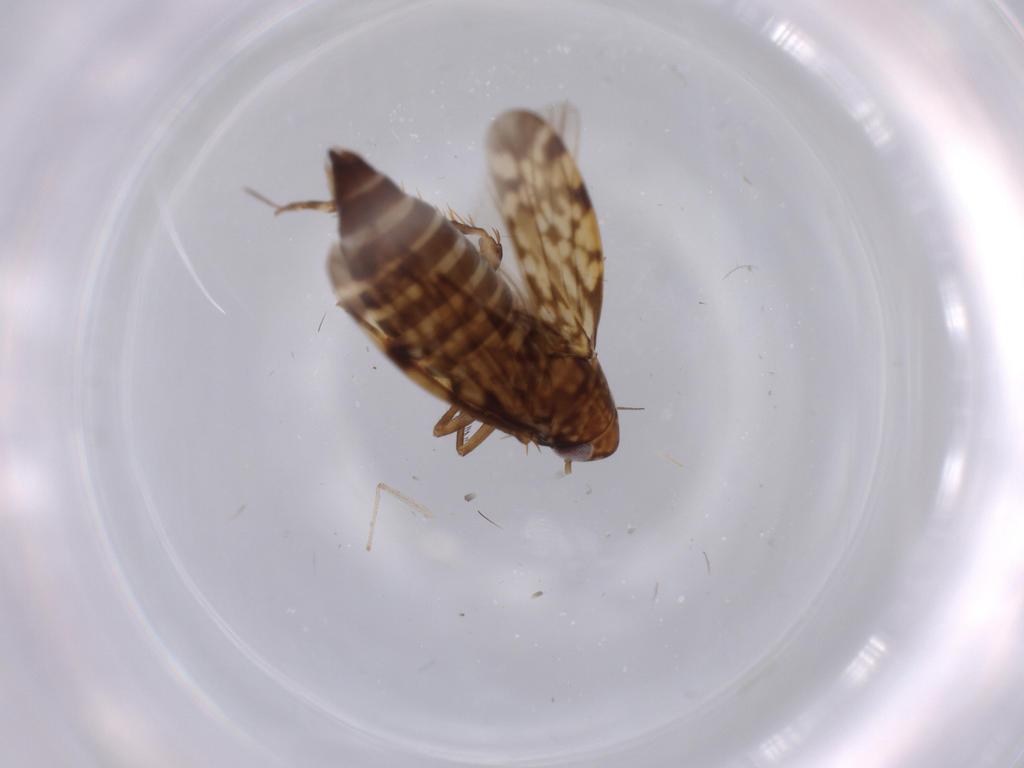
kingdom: Animalia
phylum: Arthropoda
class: Insecta
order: Hemiptera
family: Cicadellidae
